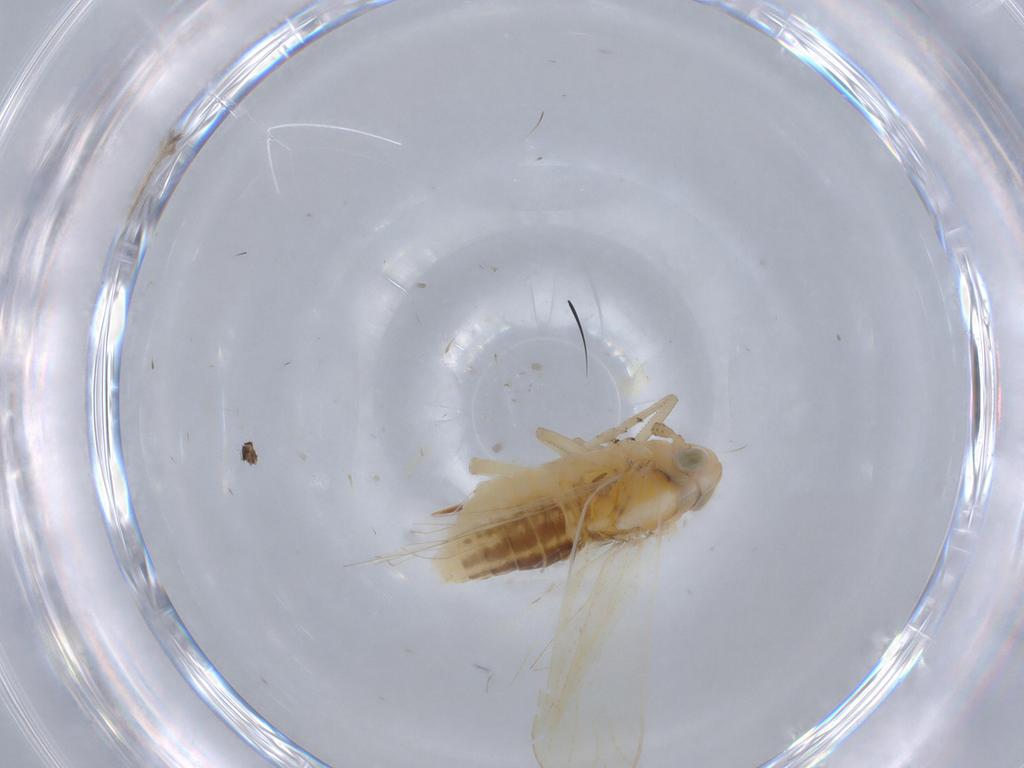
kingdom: Animalia
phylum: Arthropoda
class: Insecta
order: Hemiptera
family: Delphacidae
